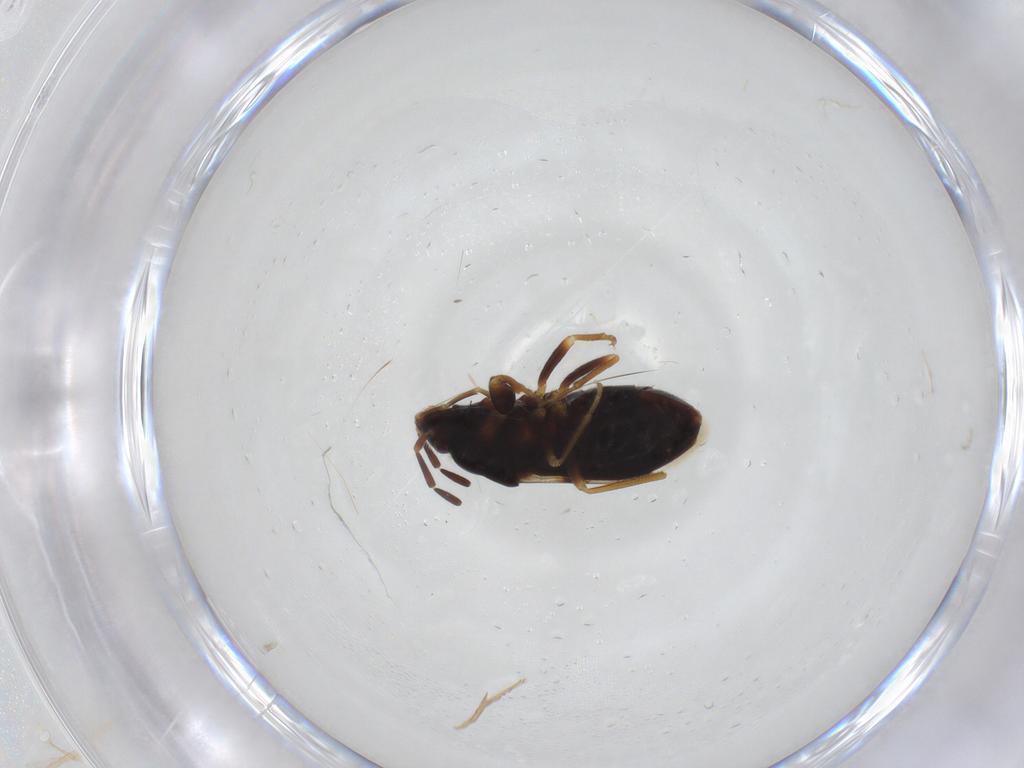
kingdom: Animalia
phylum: Arthropoda
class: Insecta
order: Hemiptera
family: Rhyparochromidae
